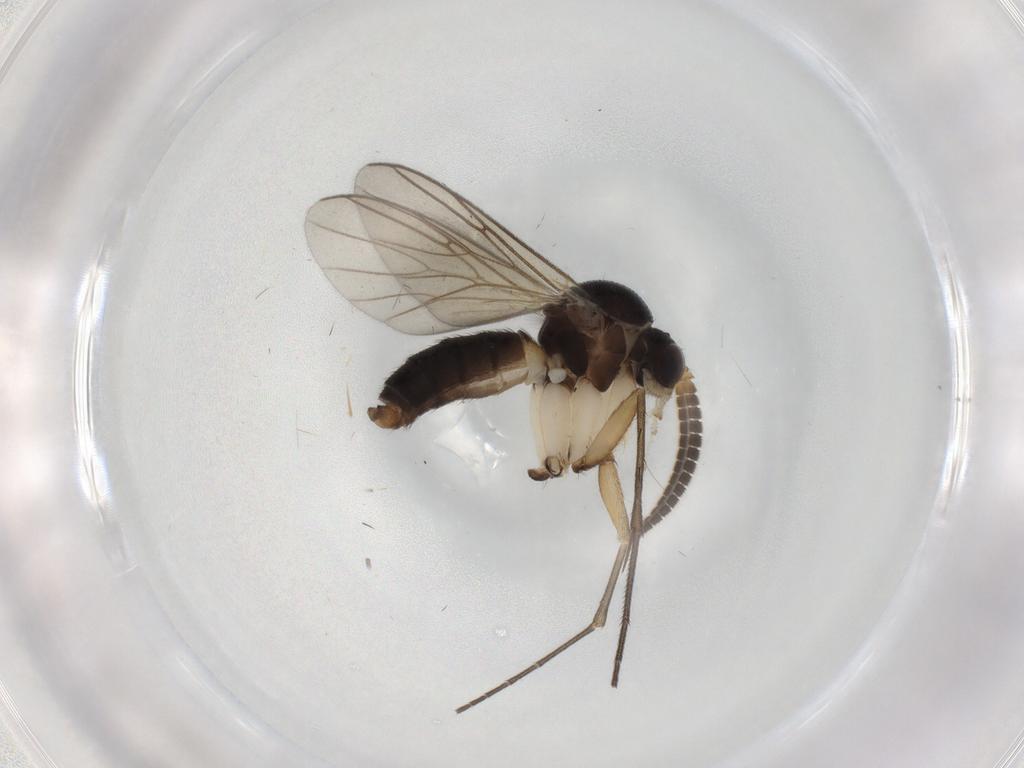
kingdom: Animalia
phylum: Arthropoda
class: Insecta
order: Diptera
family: Mycetophilidae
